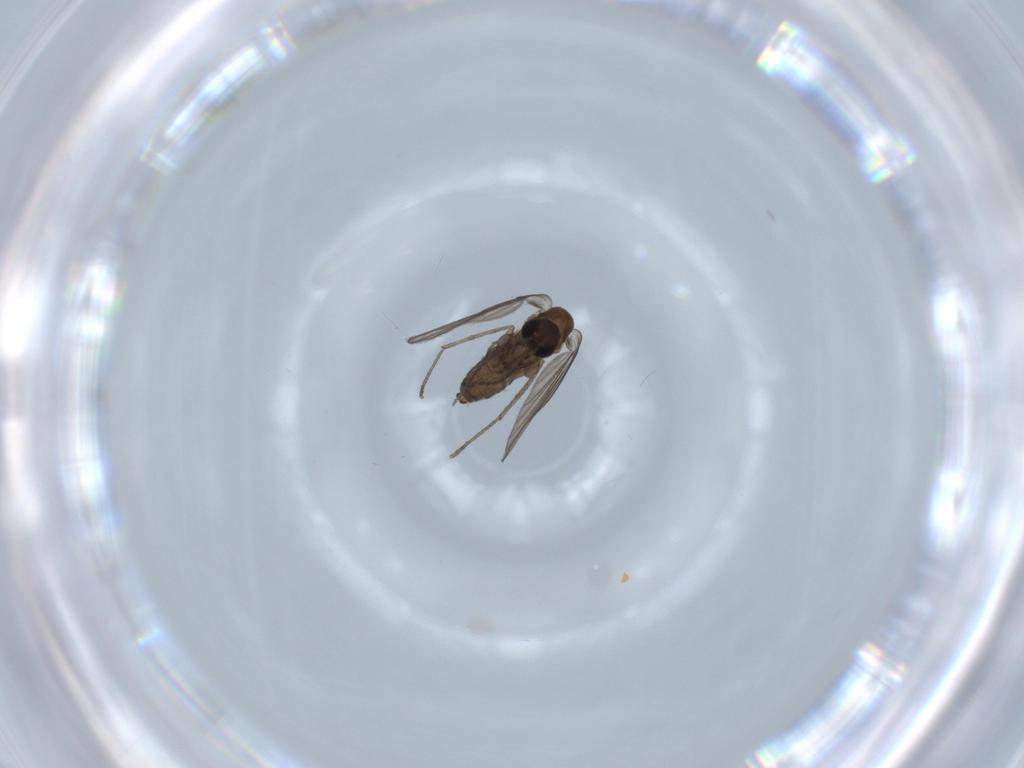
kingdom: Animalia
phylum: Arthropoda
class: Insecta
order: Diptera
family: Psychodidae
